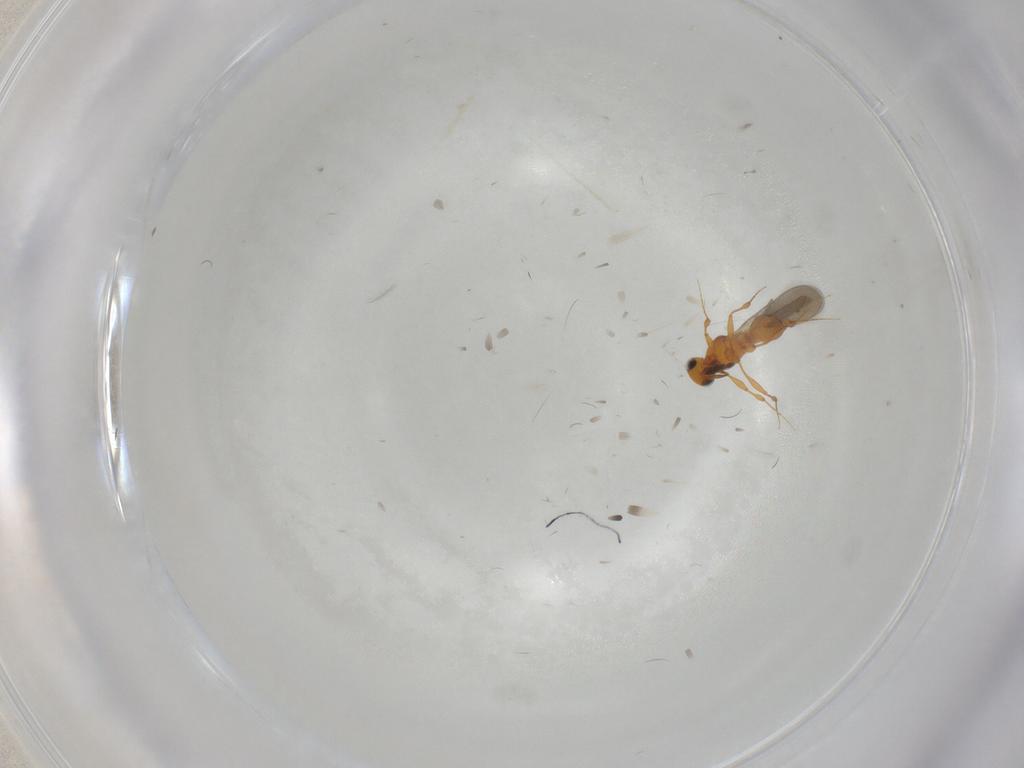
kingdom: Animalia
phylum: Arthropoda
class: Insecta
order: Hymenoptera
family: Platygastridae
